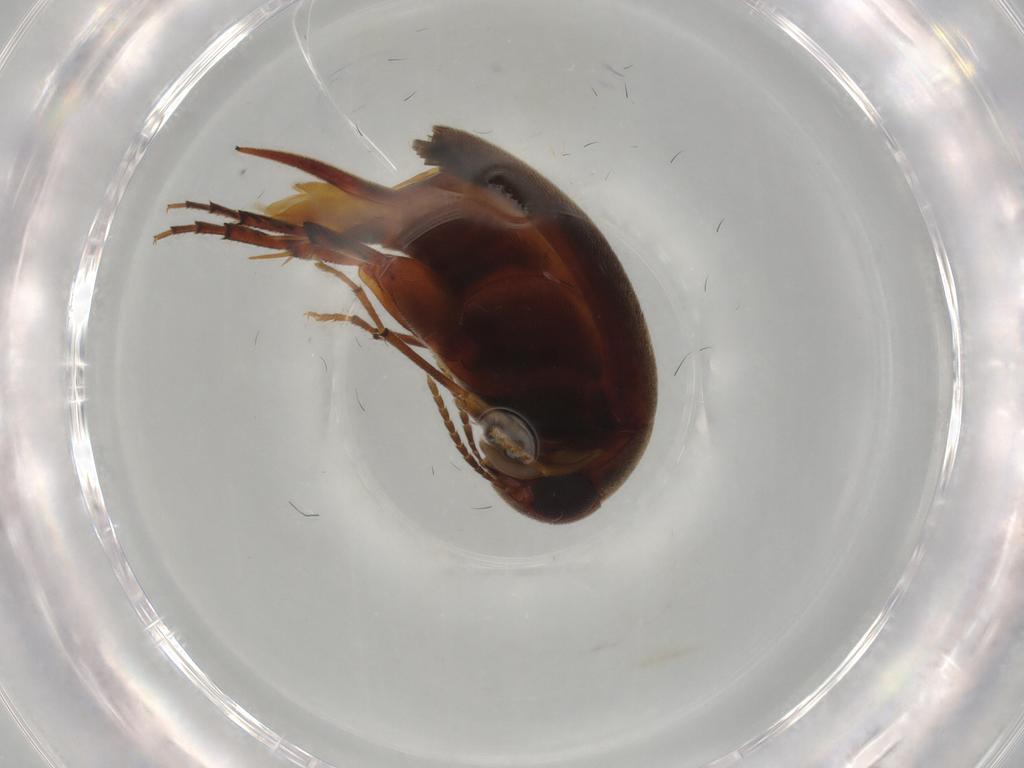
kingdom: Animalia
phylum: Arthropoda
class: Insecta
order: Coleoptera
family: Mordellidae
